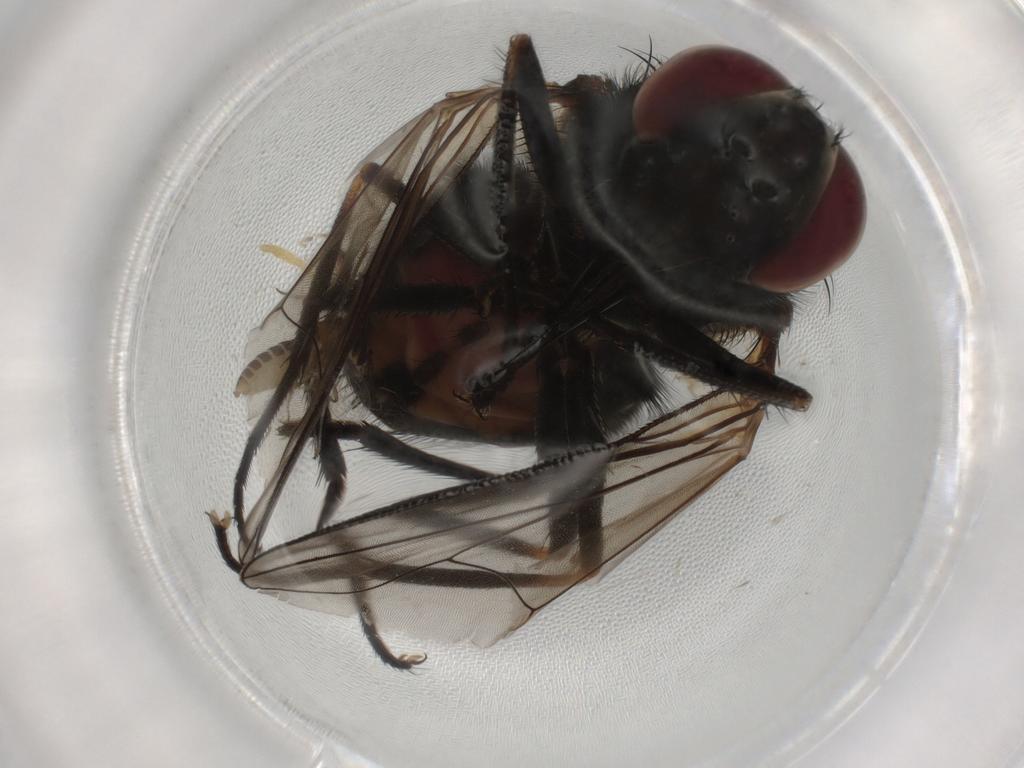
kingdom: Animalia
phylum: Arthropoda
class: Insecta
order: Diptera
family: Muscidae
